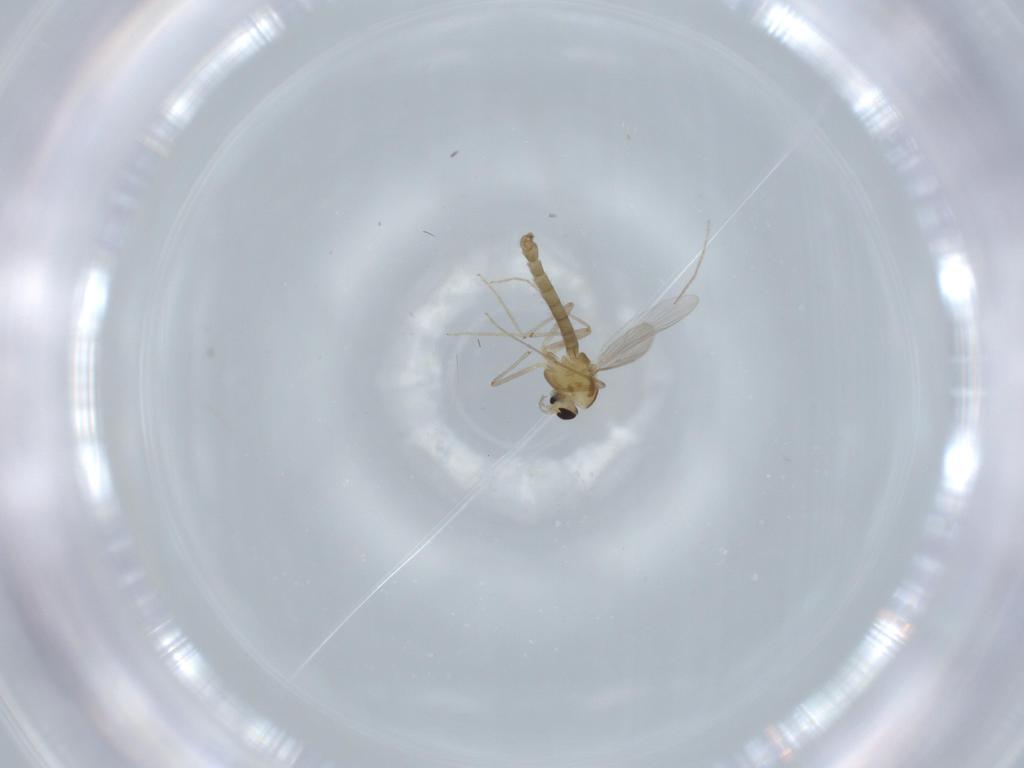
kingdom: Animalia
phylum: Arthropoda
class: Insecta
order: Diptera
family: Chironomidae
